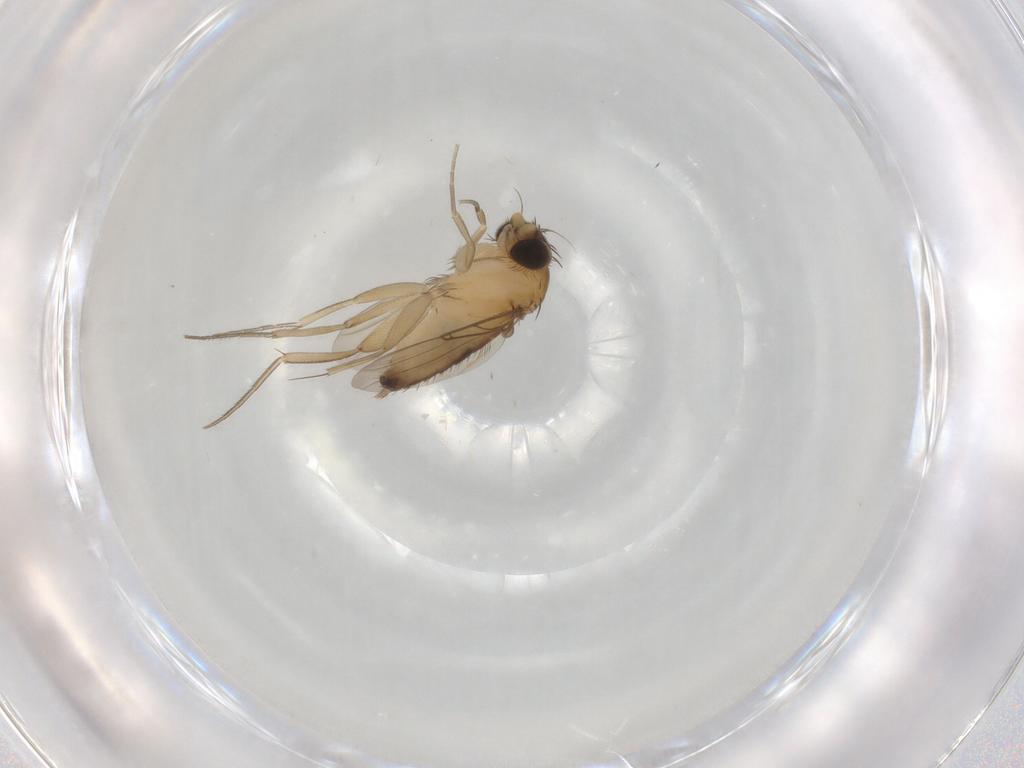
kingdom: Animalia
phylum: Arthropoda
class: Insecta
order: Diptera
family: Phoridae
